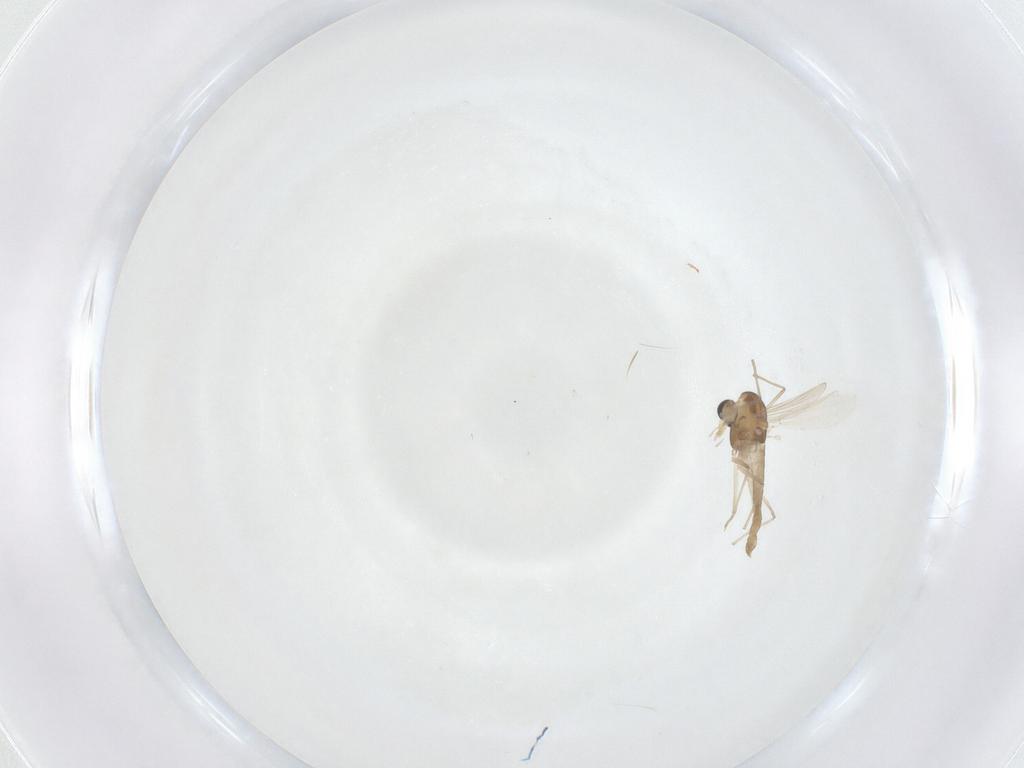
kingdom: Animalia
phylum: Arthropoda
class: Insecta
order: Diptera
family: Chironomidae
